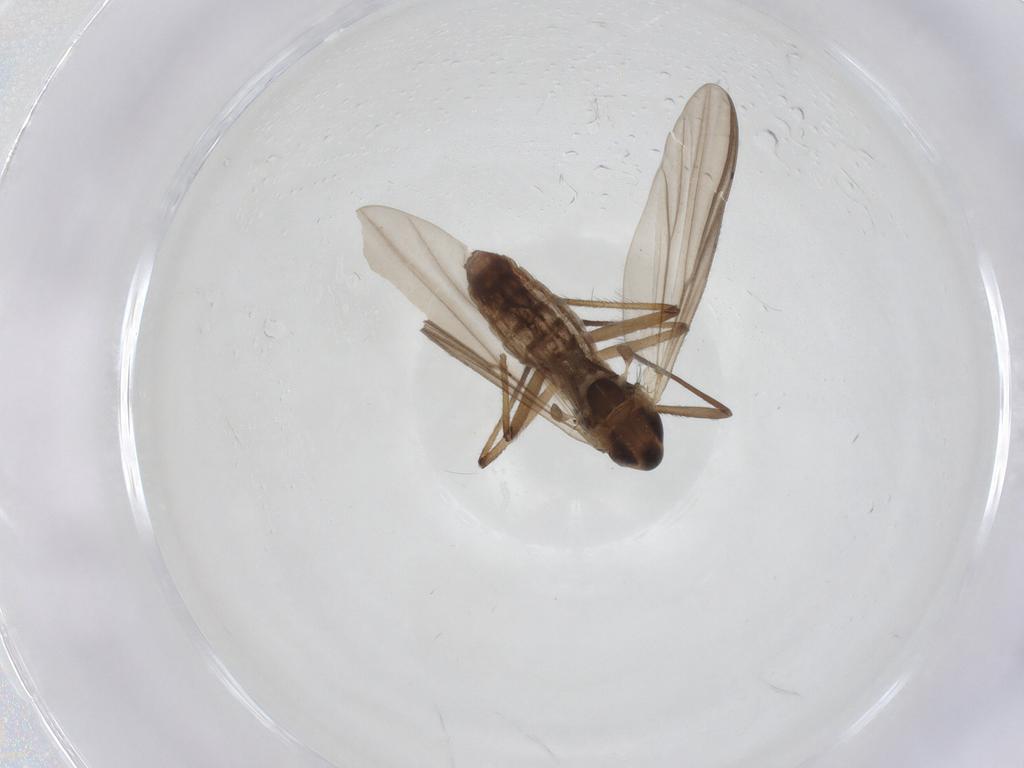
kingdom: Animalia
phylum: Arthropoda
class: Insecta
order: Diptera
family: Chironomidae
